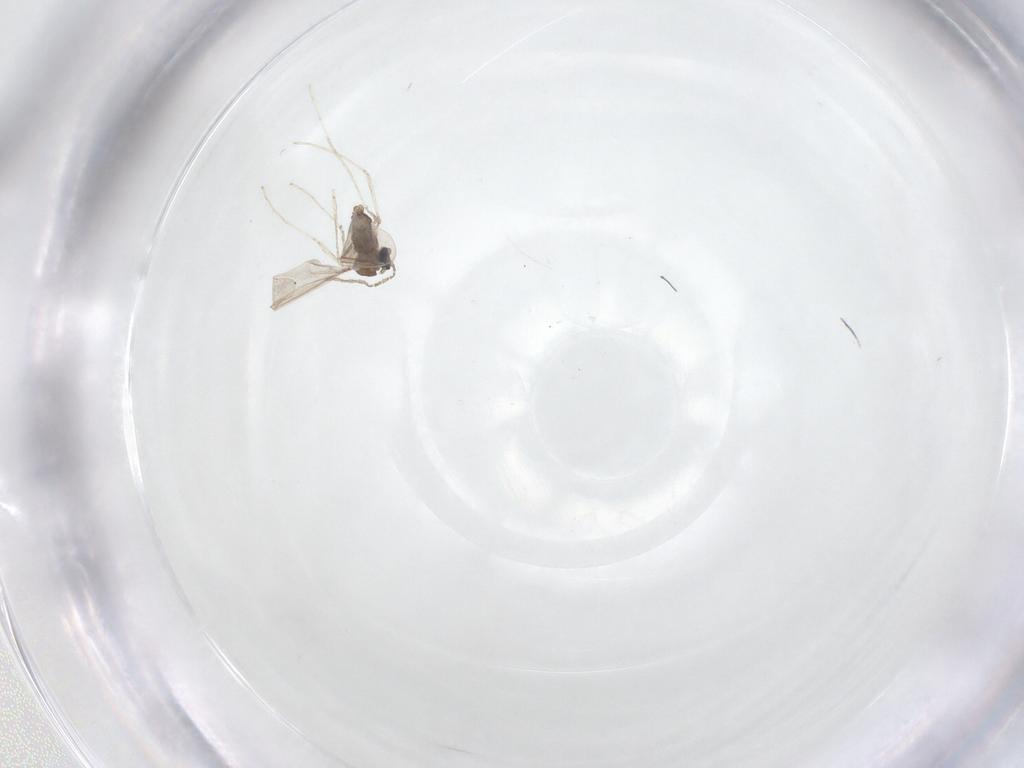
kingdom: Animalia
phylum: Arthropoda
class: Insecta
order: Diptera
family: Cecidomyiidae
